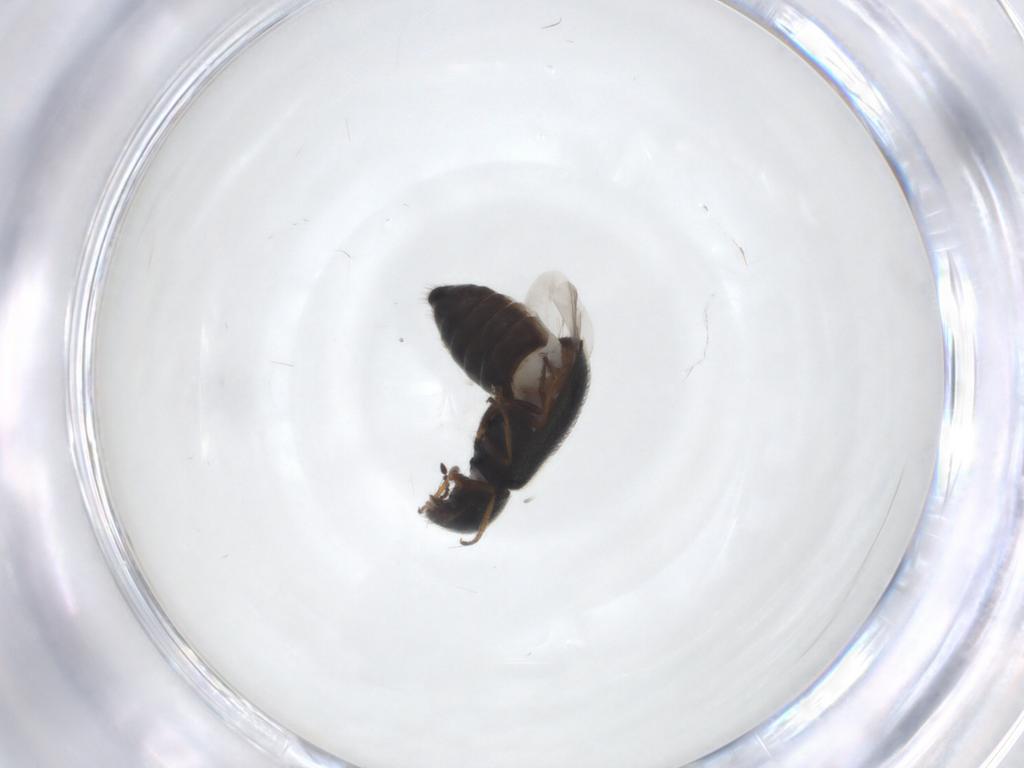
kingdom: Animalia
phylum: Arthropoda
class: Insecta
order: Coleoptera
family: Melyridae
